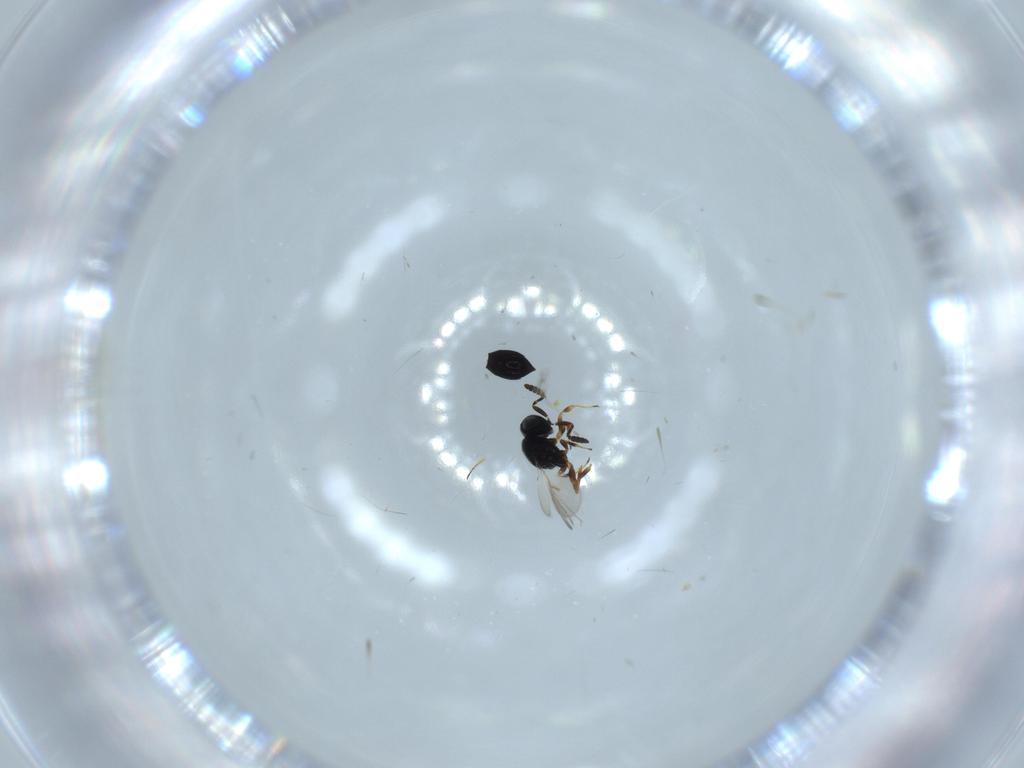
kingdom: Animalia
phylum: Arthropoda
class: Insecta
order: Hymenoptera
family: Scelionidae
